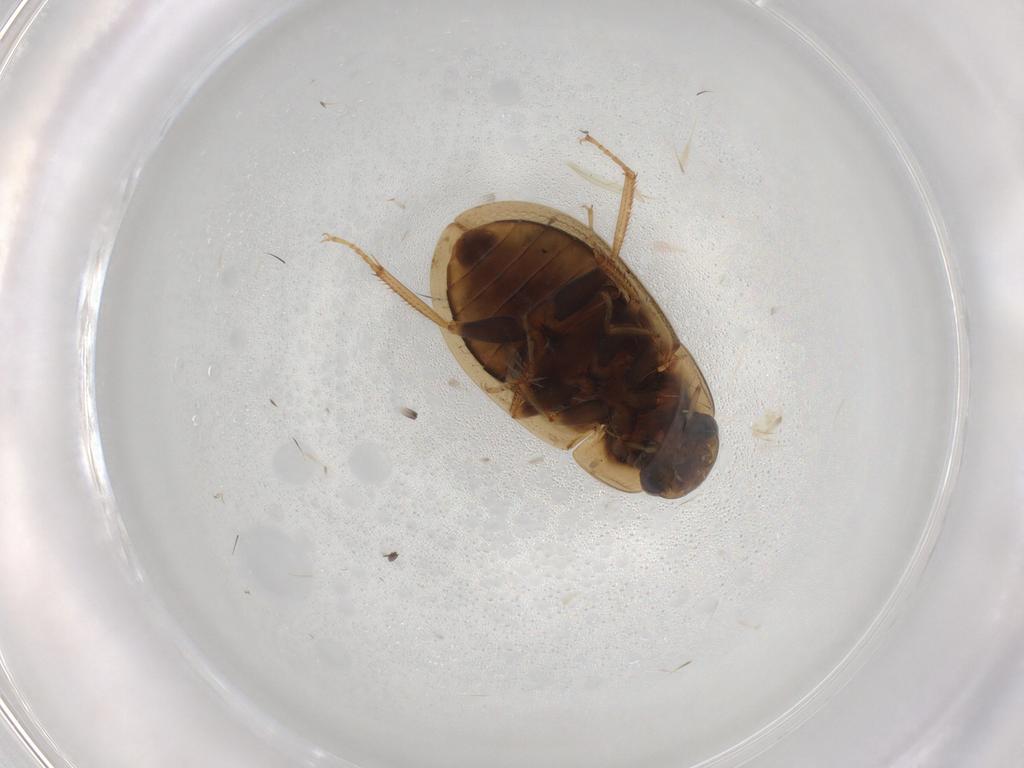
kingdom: Animalia
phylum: Arthropoda
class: Insecta
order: Coleoptera
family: Hydrophilidae
